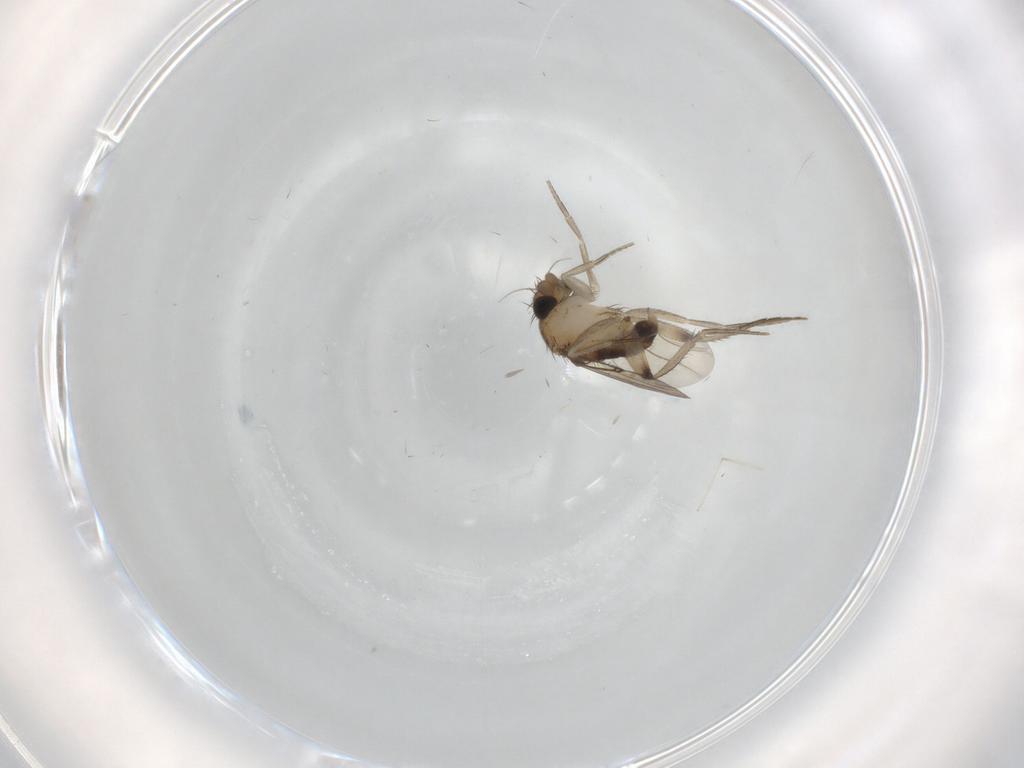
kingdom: Animalia
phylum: Arthropoda
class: Insecta
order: Diptera
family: Phoridae
